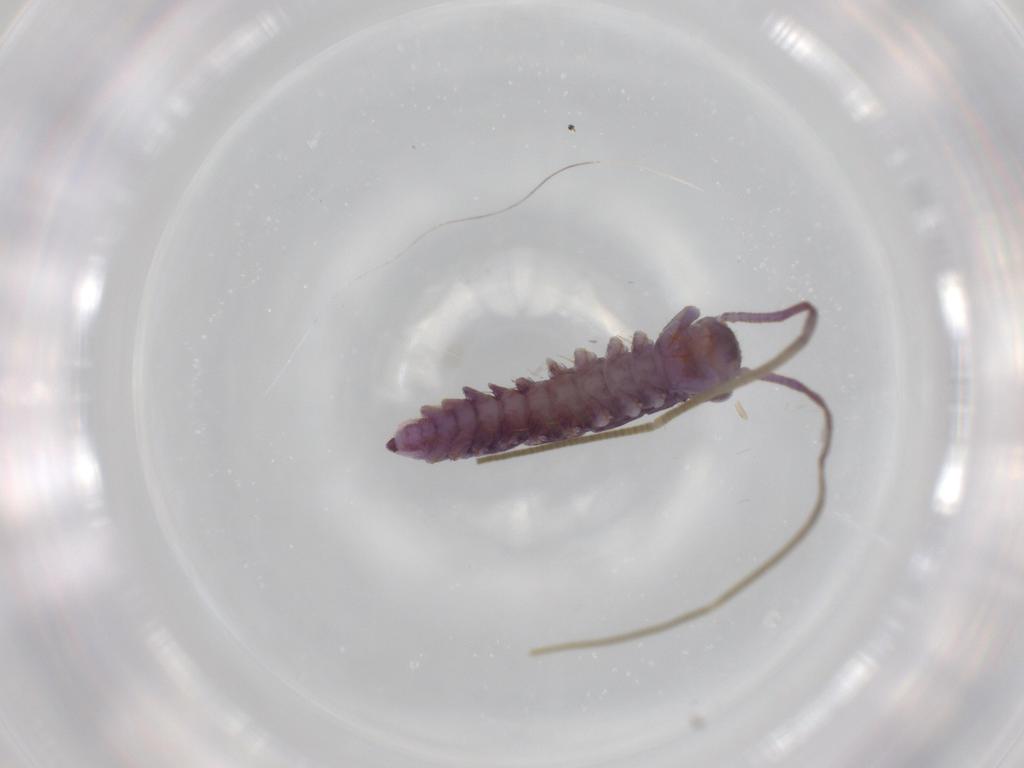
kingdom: Animalia
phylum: Arthropoda
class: Chilopoda
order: Scutigeromorpha
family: Scutigeridae
